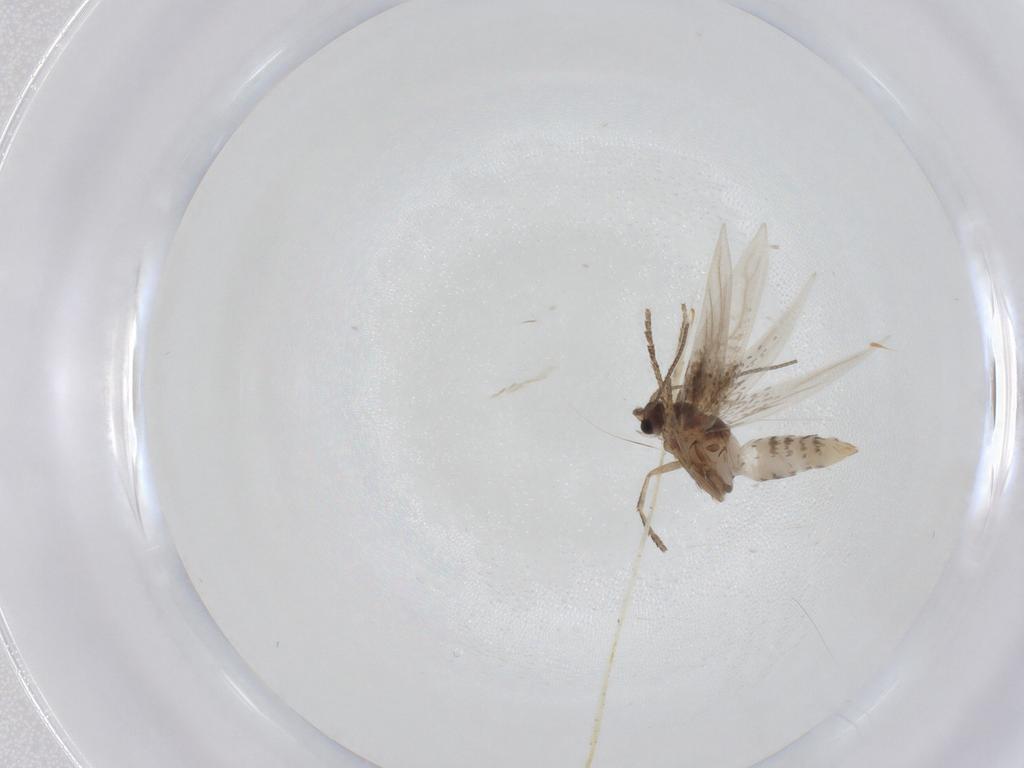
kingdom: Animalia
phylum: Arthropoda
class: Insecta
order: Lepidoptera
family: Nepticulidae
